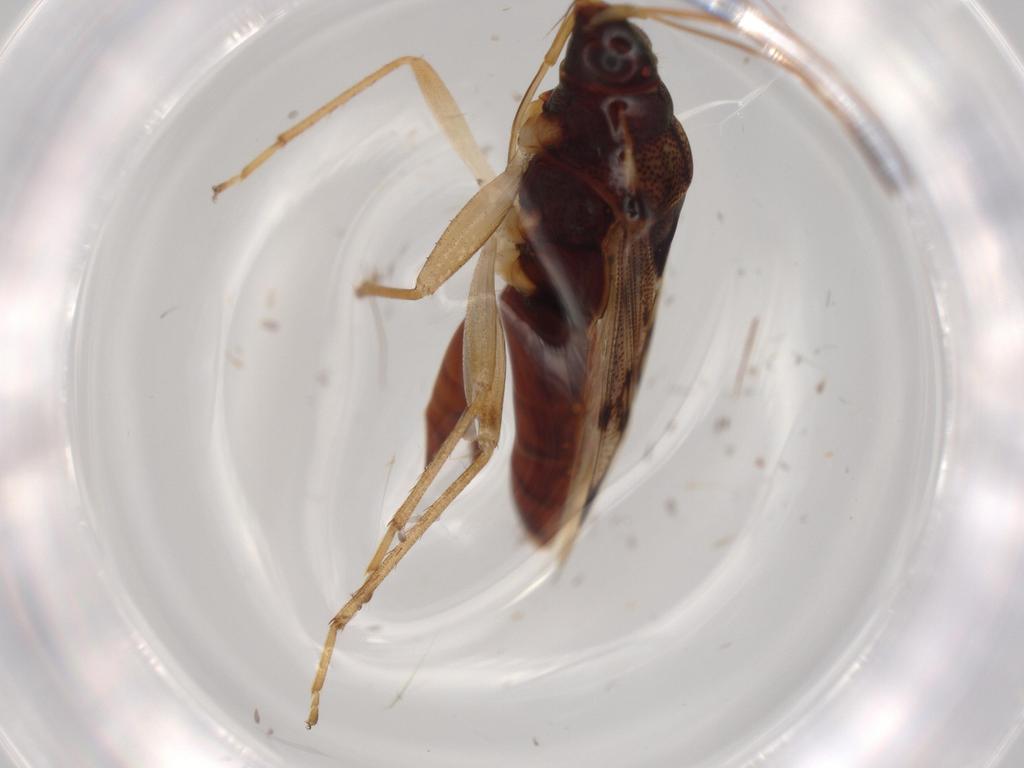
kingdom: Animalia
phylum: Arthropoda
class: Insecta
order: Hemiptera
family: Rhyparochromidae
